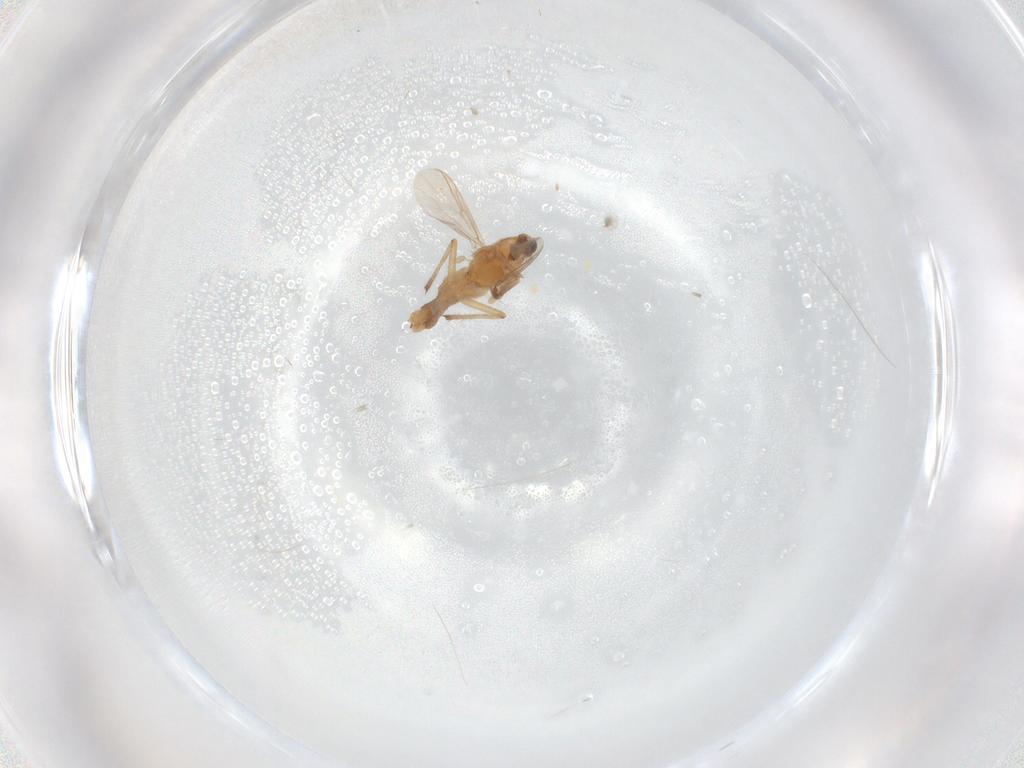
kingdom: Animalia
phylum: Arthropoda
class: Insecta
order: Diptera
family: Chironomidae
